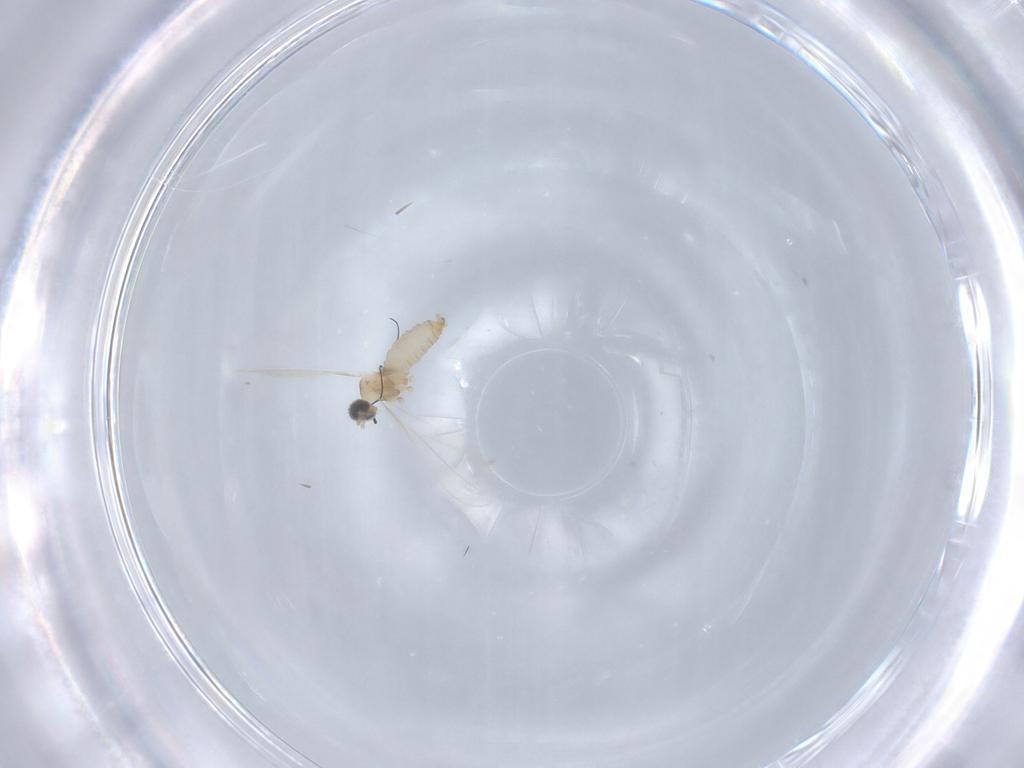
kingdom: Animalia
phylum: Arthropoda
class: Insecta
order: Diptera
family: Cecidomyiidae
